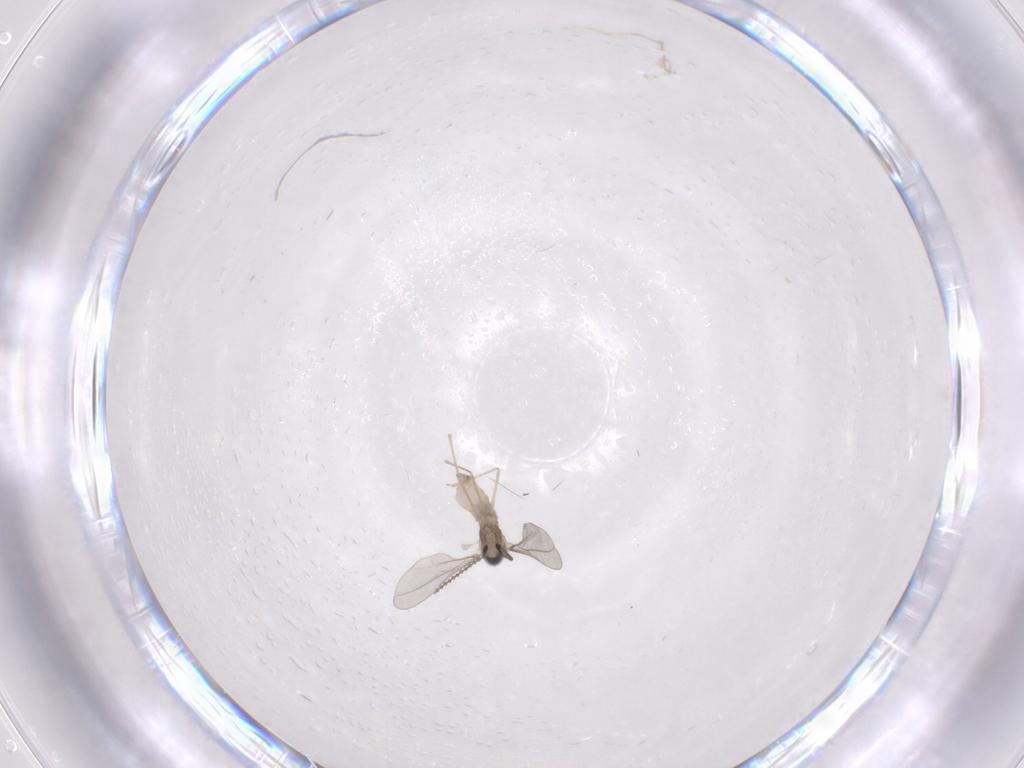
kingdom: Animalia
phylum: Arthropoda
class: Insecta
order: Diptera
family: Cecidomyiidae
